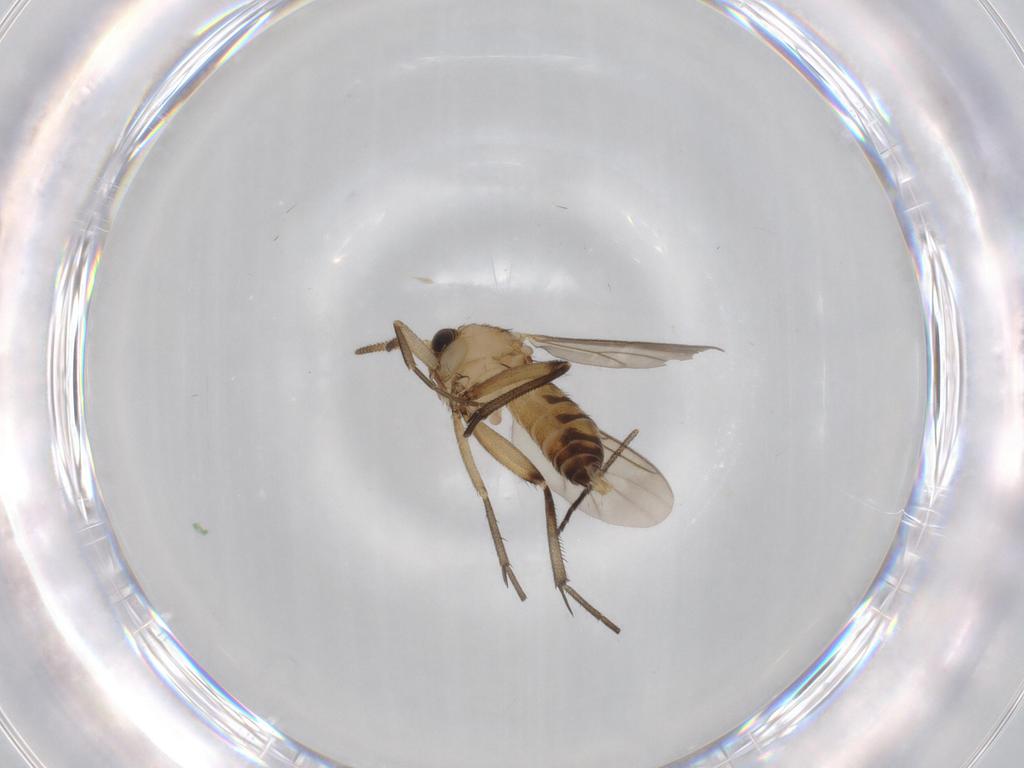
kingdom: Animalia
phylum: Arthropoda
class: Insecta
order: Diptera
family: Mycetophilidae
